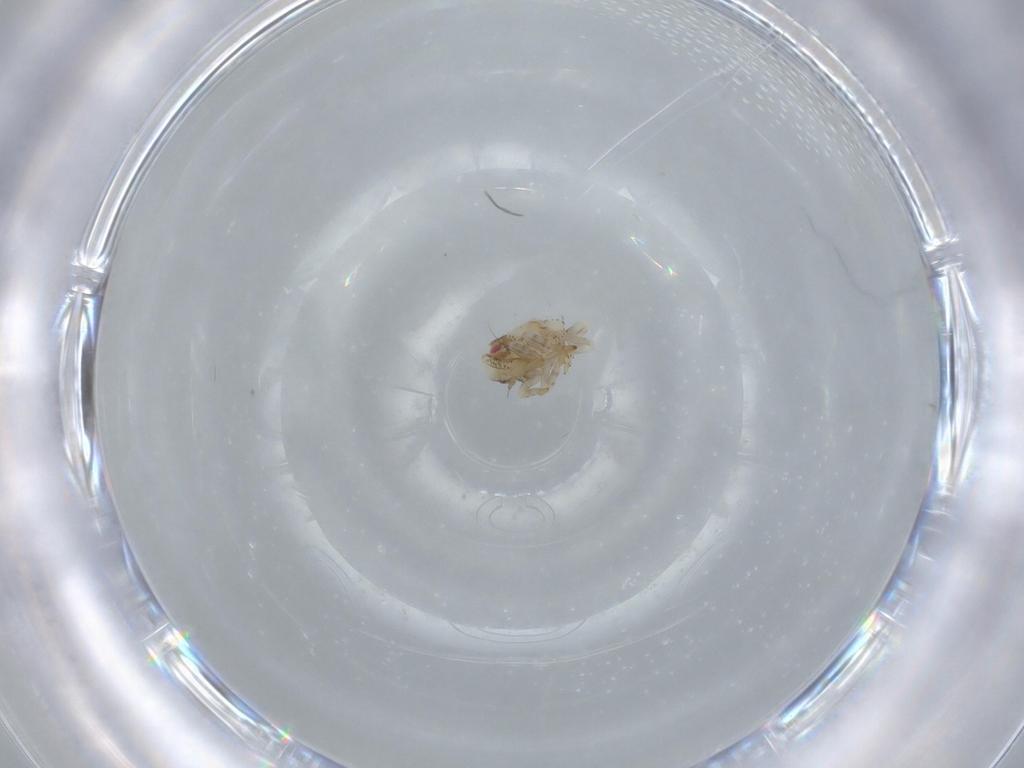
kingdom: Animalia
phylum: Arthropoda
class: Insecta
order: Hemiptera
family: Acanaloniidae
